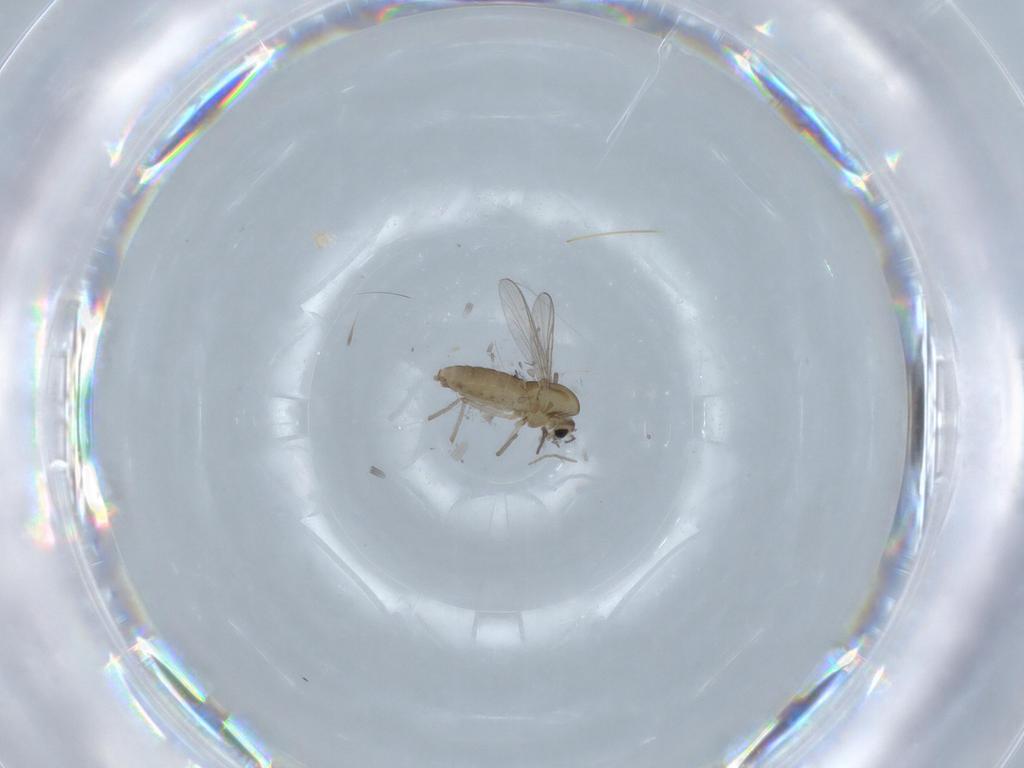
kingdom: Animalia
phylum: Arthropoda
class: Insecta
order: Diptera
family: Chironomidae
